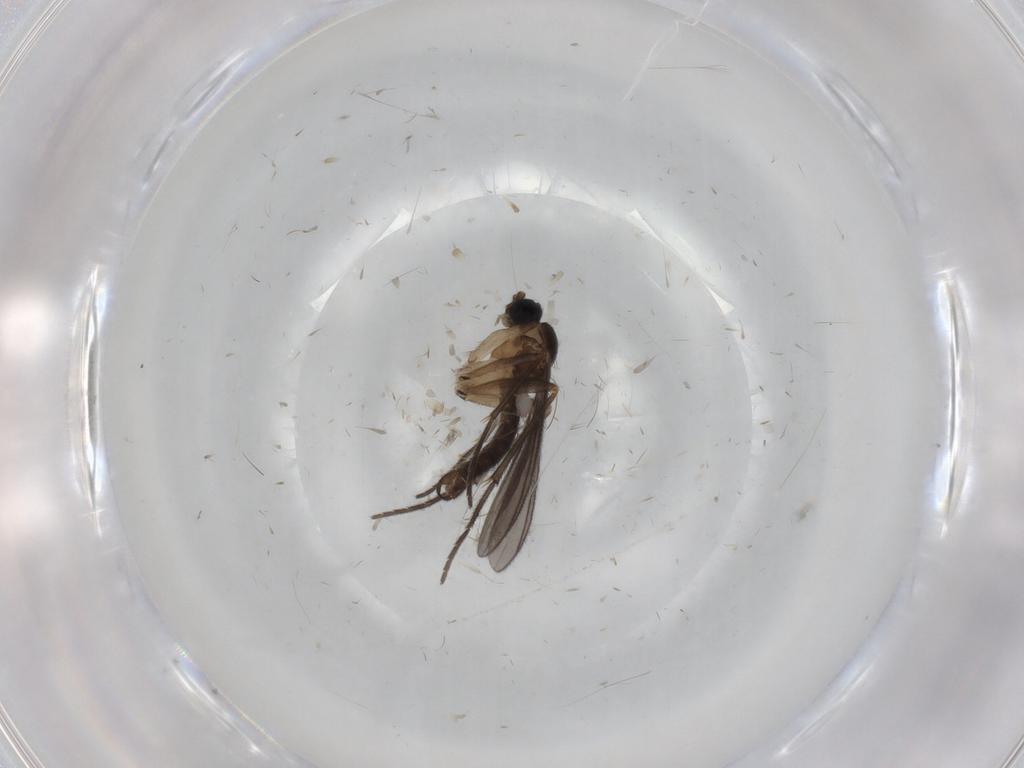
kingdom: Animalia
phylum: Arthropoda
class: Insecta
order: Diptera
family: Sciaridae
